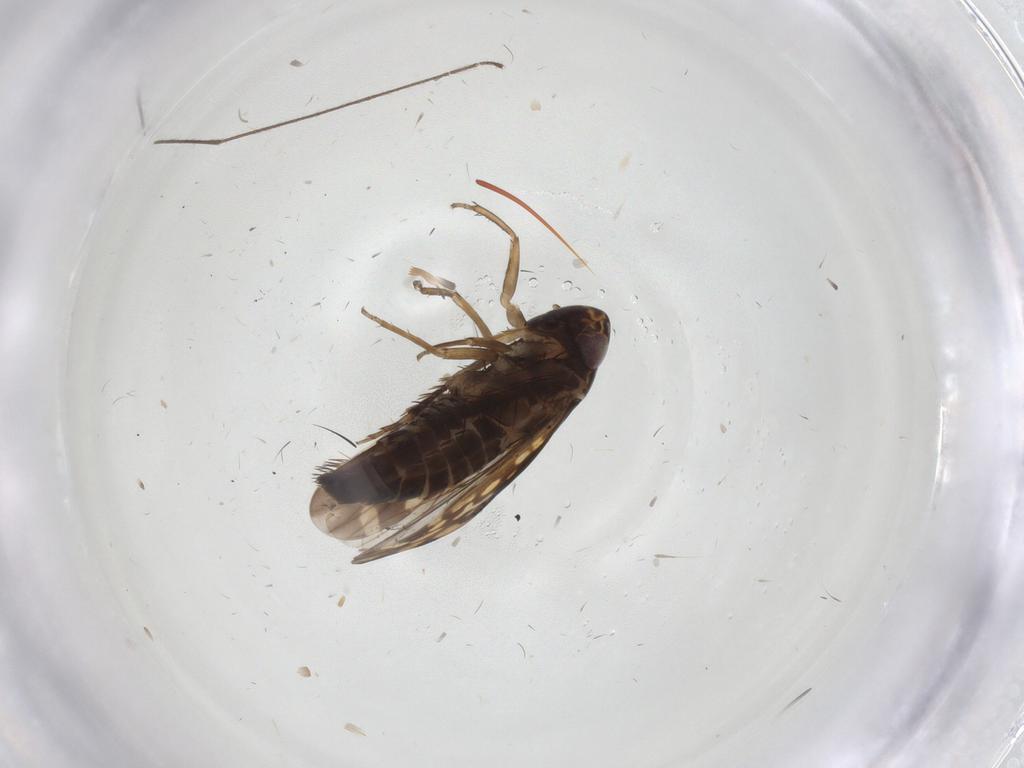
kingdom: Animalia
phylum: Arthropoda
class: Insecta
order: Hemiptera
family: Cicadellidae
